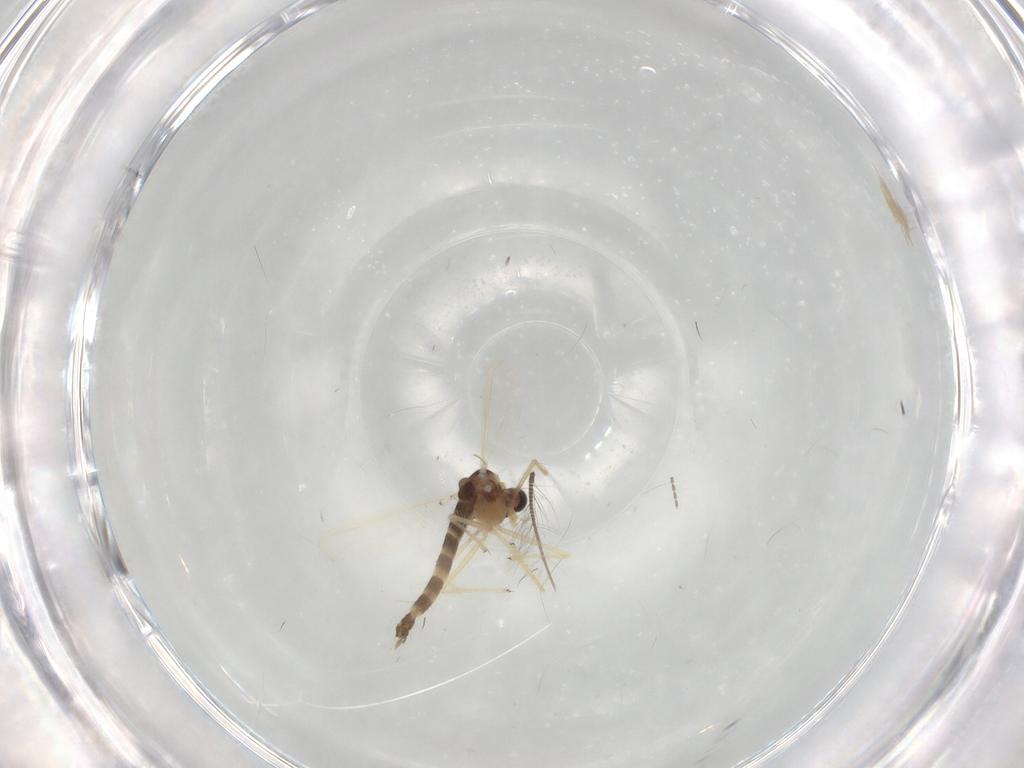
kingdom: Animalia
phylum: Arthropoda
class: Insecta
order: Diptera
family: Chironomidae
